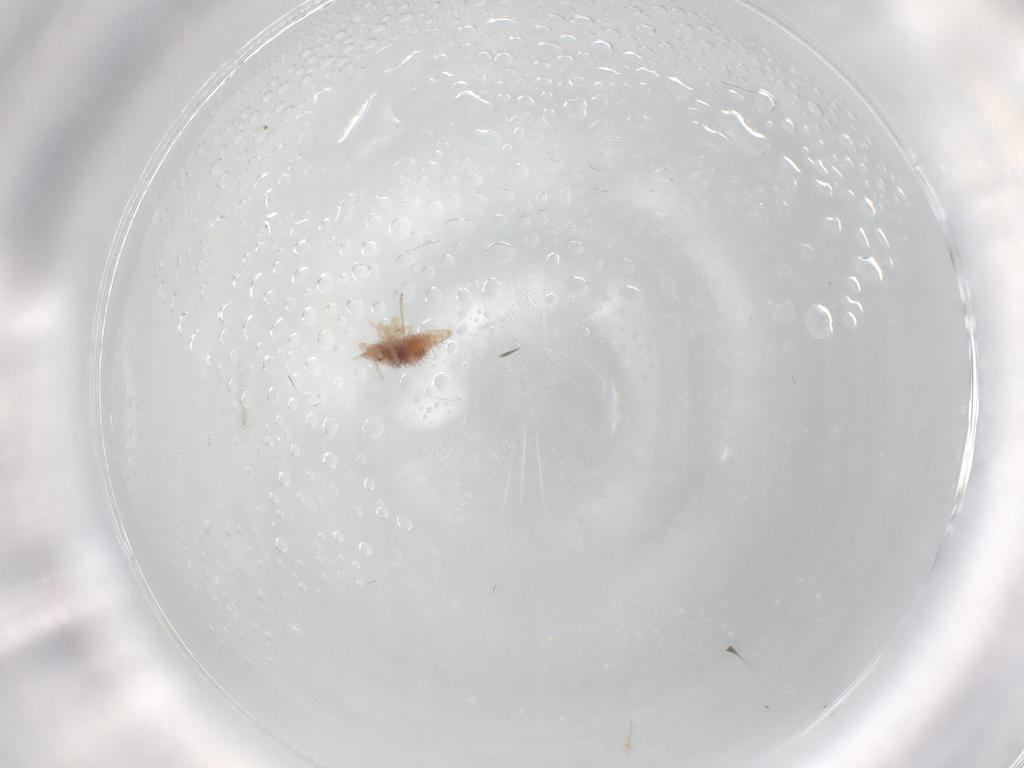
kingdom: Animalia
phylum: Arthropoda
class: Insecta
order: Hemiptera
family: Cicadellidae
